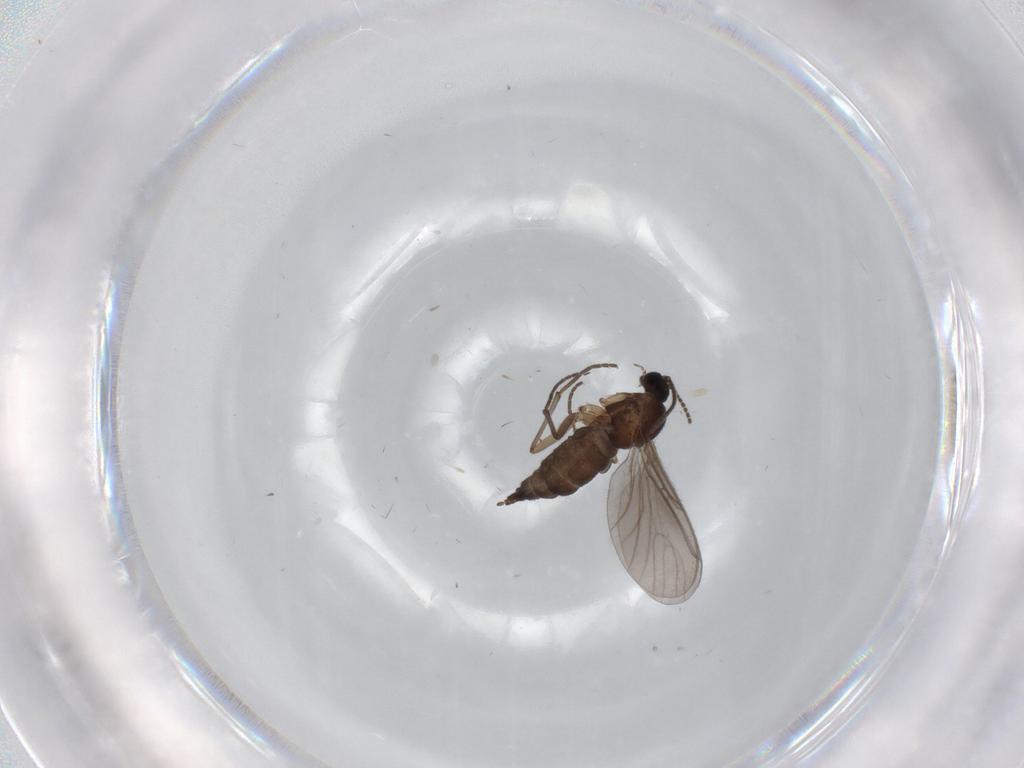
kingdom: Animalia
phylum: Arthropoda
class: Insecta
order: Diptera
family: Sciaridae
